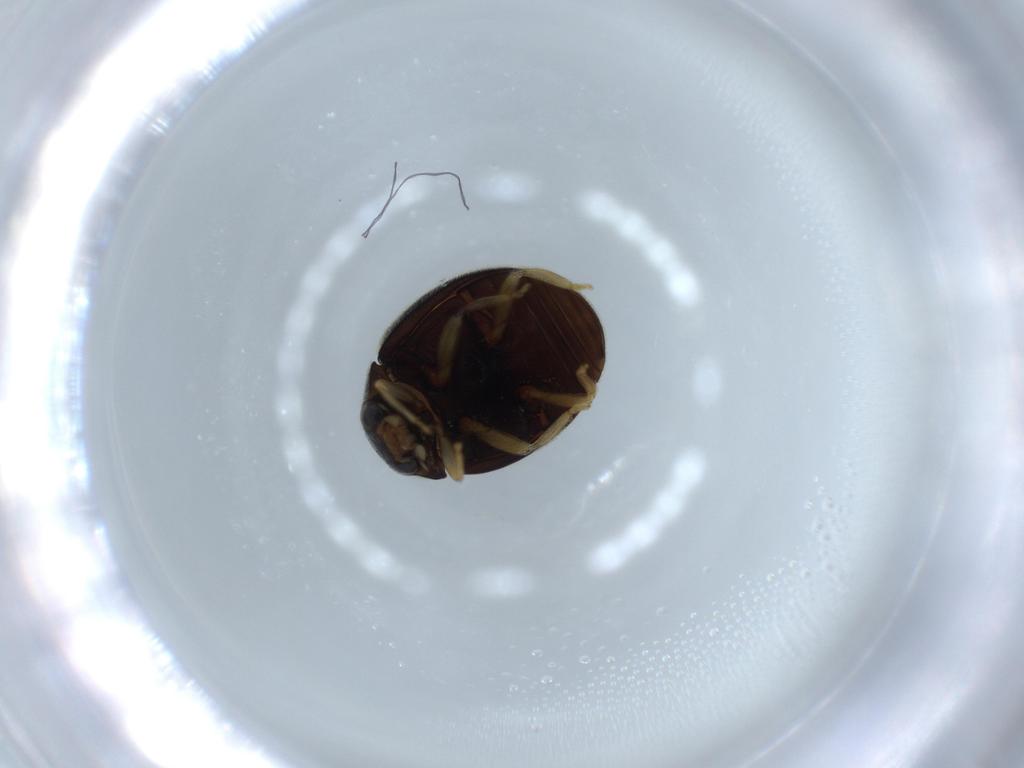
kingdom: Animalia
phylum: Arthropoda
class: Insecta
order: Coleoptera
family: Coccinellidae
